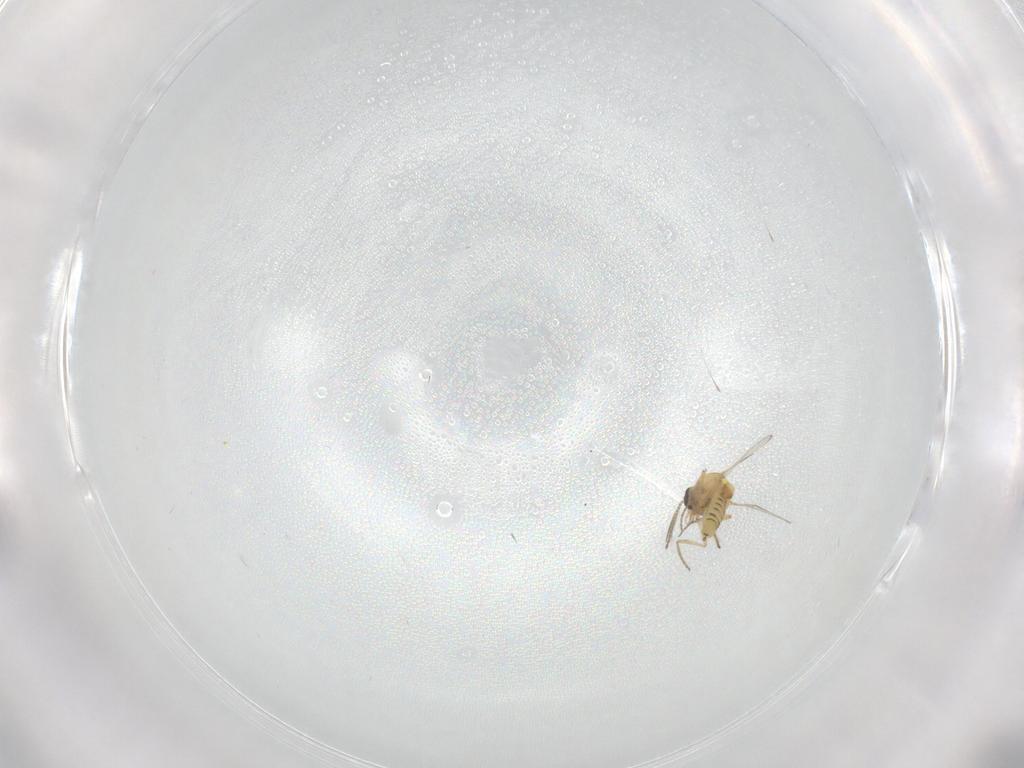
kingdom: Animalia
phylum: Arthropoda
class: Insecta
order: Diptera
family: Ceratopogonidae
